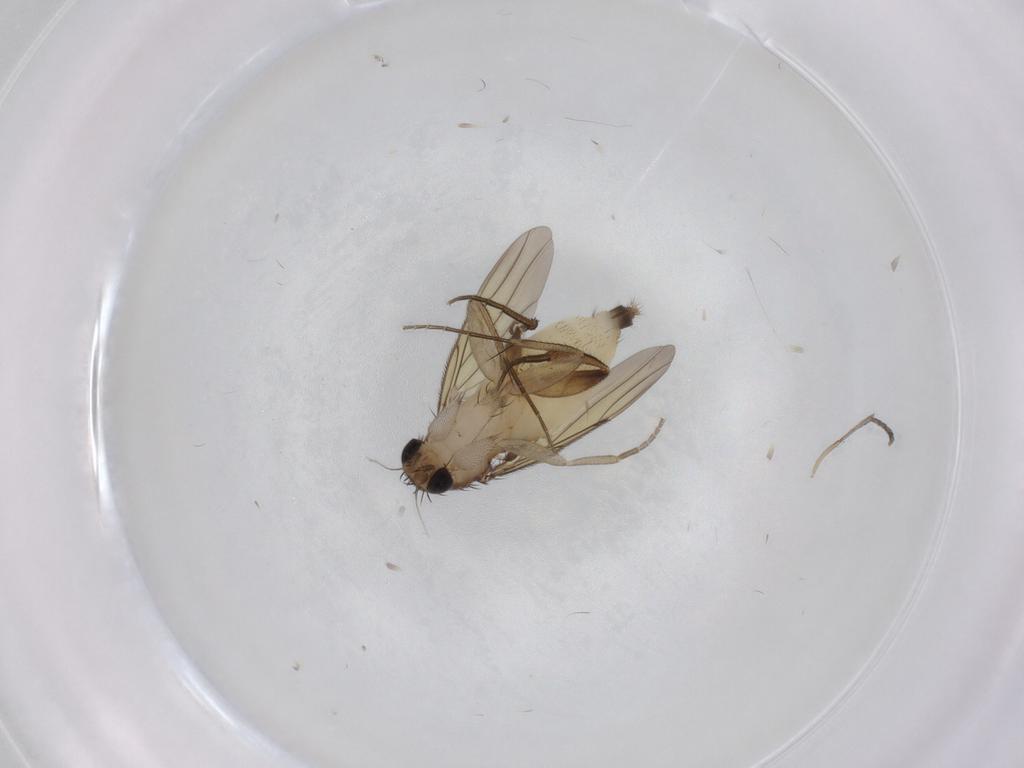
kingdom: Animalia
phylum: Arthropoda
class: Insecta
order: Diptera
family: Phoridae
